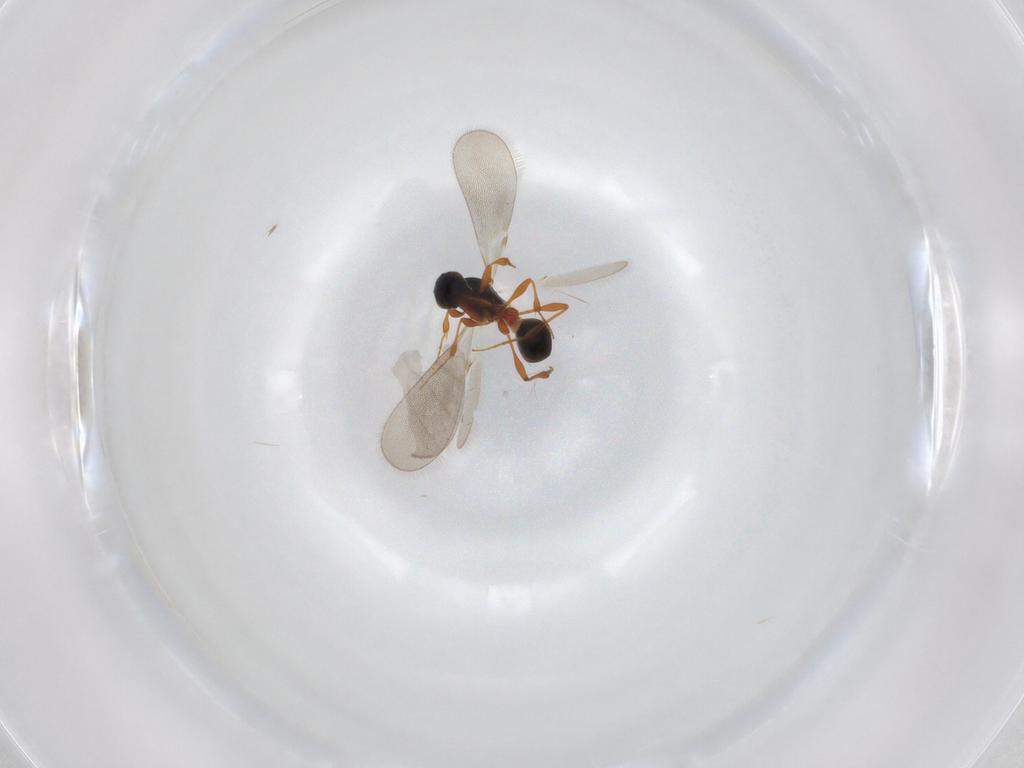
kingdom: Animalia
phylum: Arthropoda
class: Insecta
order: Hymenoptera
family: Platygastridae
